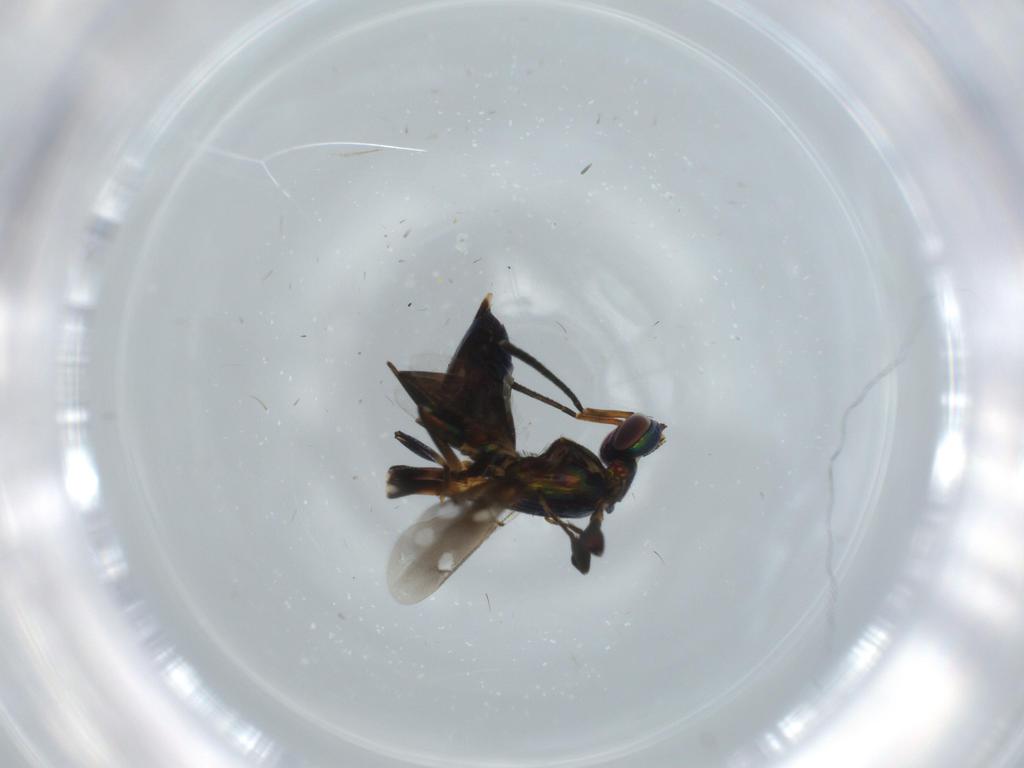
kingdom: Animalia
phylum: Arthropoda
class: Insecta
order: Hymenoptera
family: Eupelmidae
